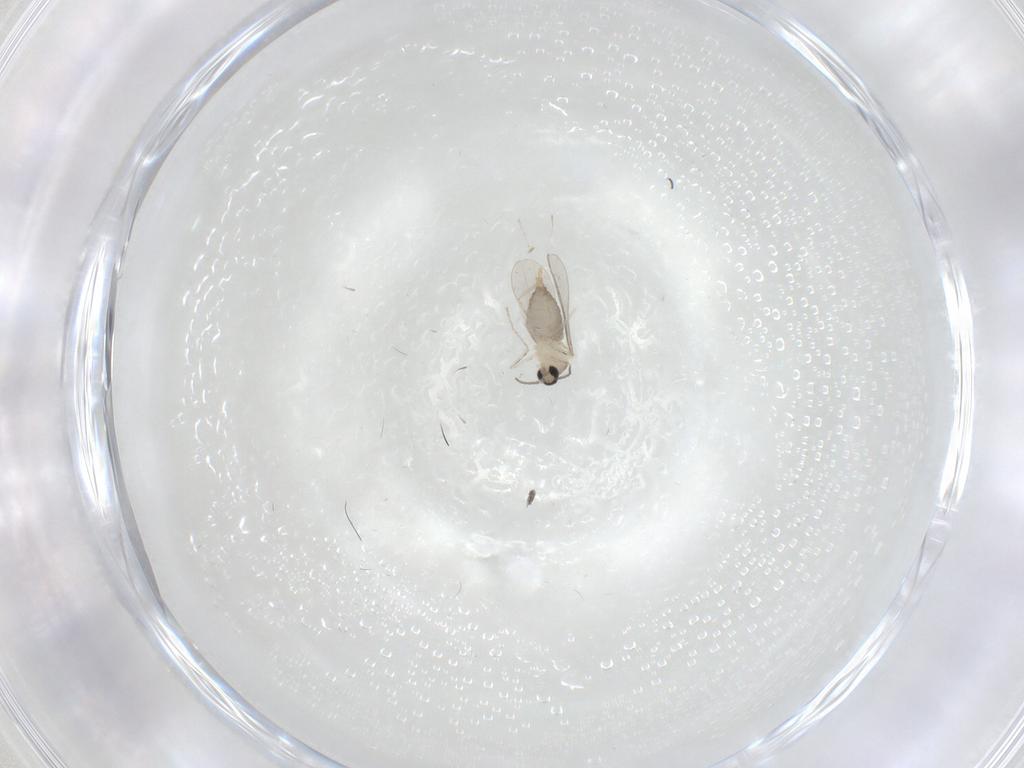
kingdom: Animalia
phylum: Arthropoda
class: Insecta
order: Diptera
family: Cecidomyiidae
